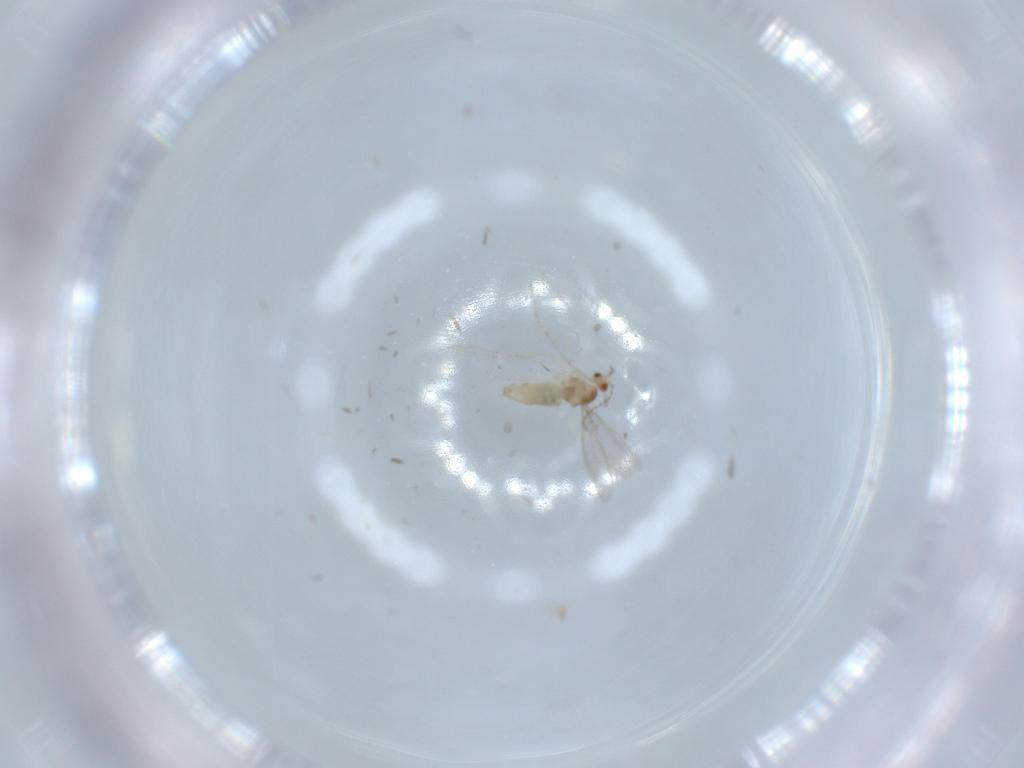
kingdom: Animalia
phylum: Arthropoda
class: Insecta
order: Diptera
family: Cecidomyiidae
